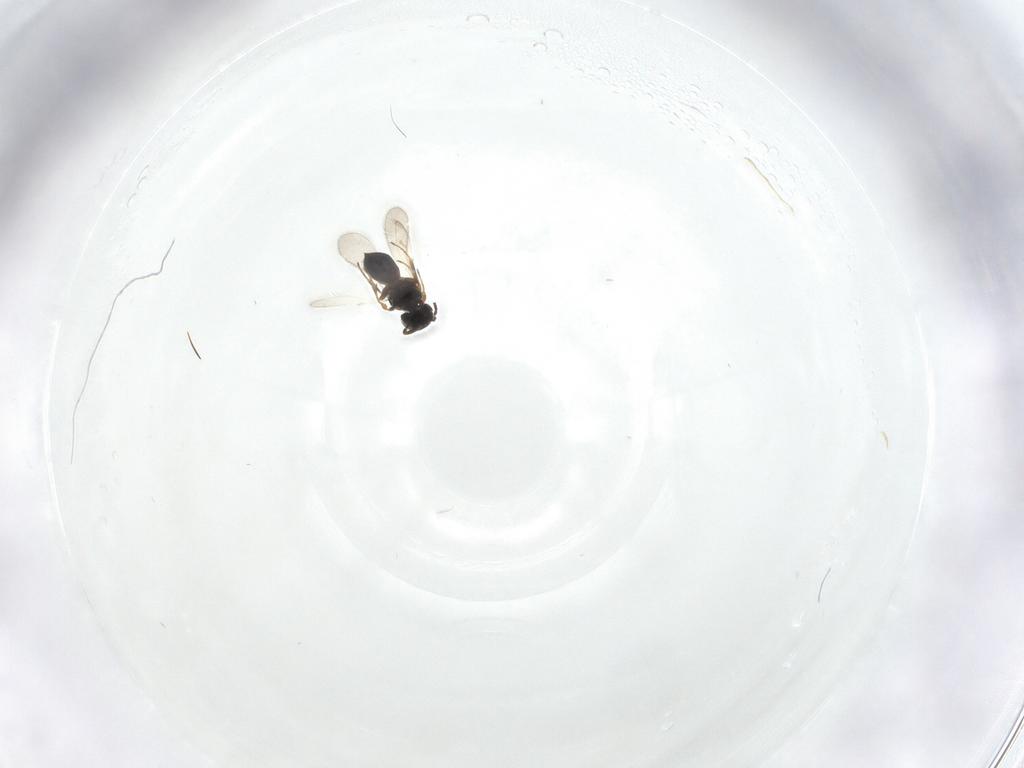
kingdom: Animalia
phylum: Arthropoda
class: Insecta
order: Hymenoptera
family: Scelionidae
